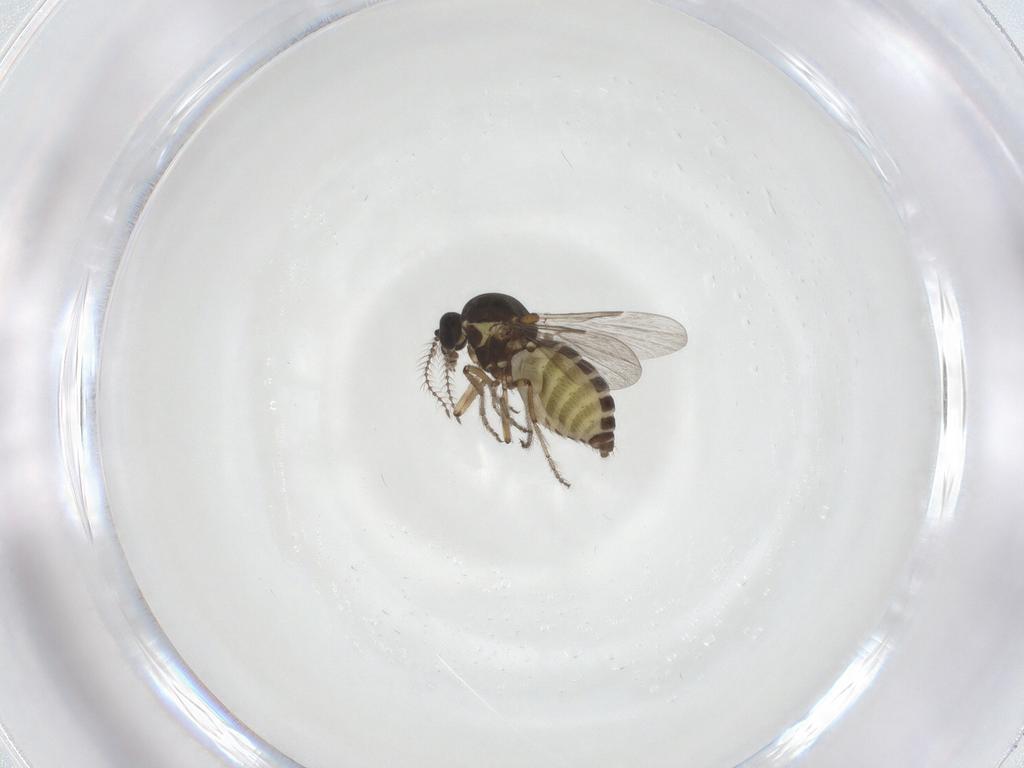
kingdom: Animalia
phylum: Arthropoda
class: Insecta
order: Diptera
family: Ceratopogonidae
